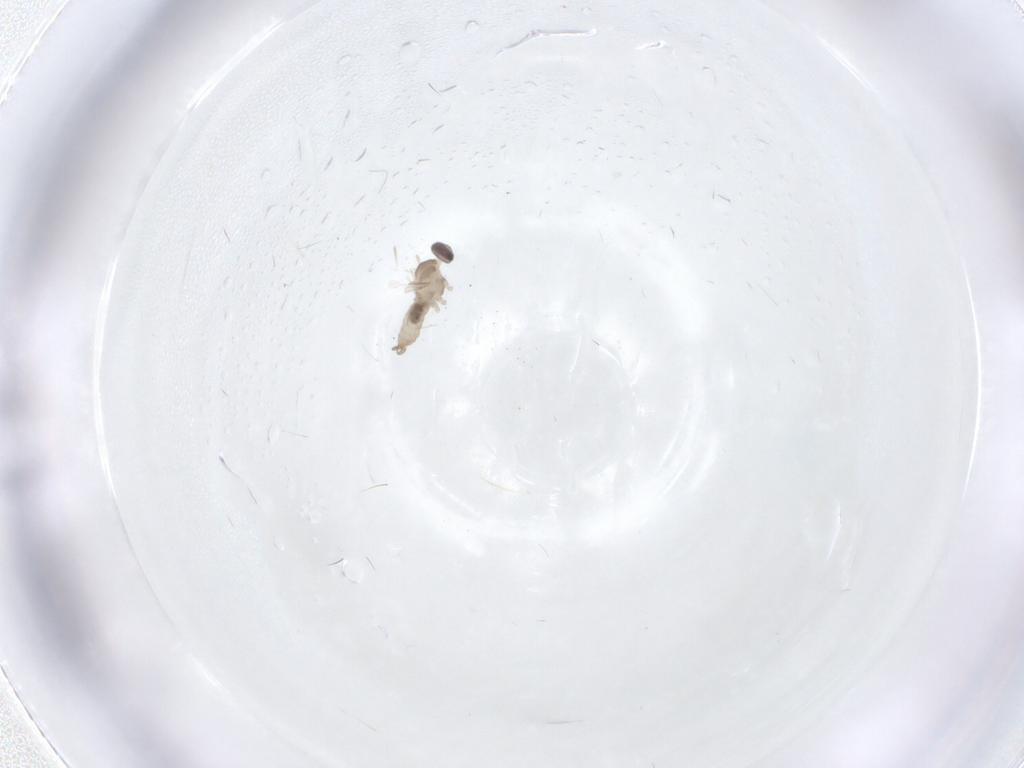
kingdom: Animalia
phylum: Arthropoda
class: Insecta
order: Diptera
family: Cecidomyiidae
